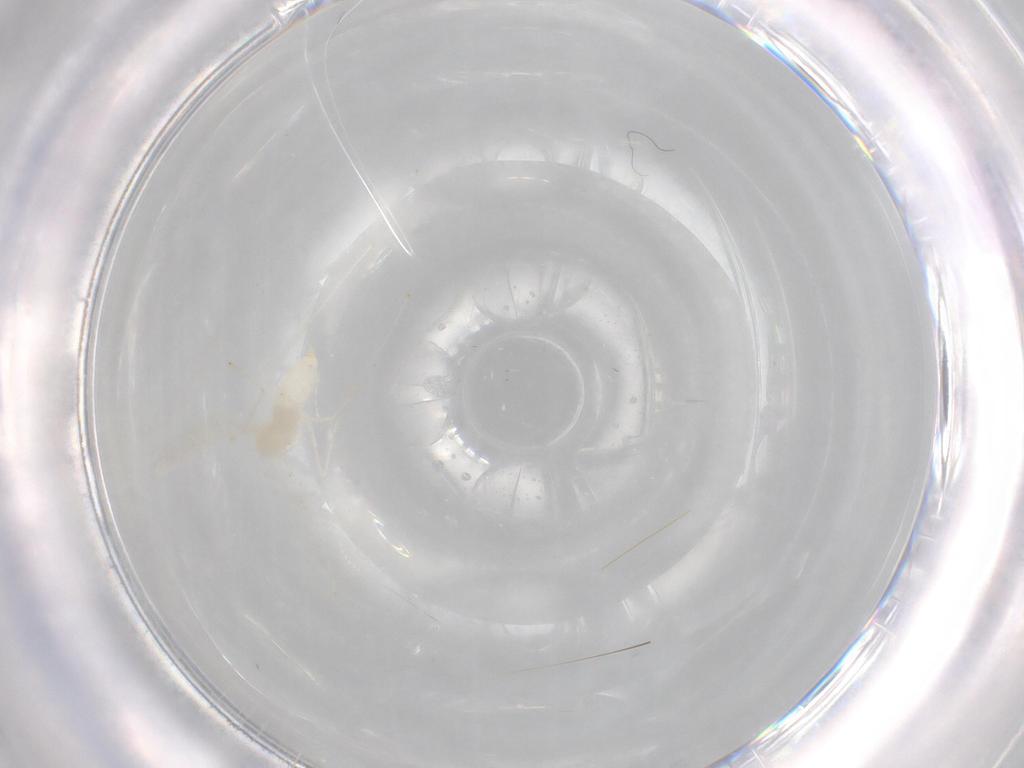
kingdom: Animalia
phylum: Arthropoda
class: Insecta
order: Diptera
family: Cecidomyiidae
